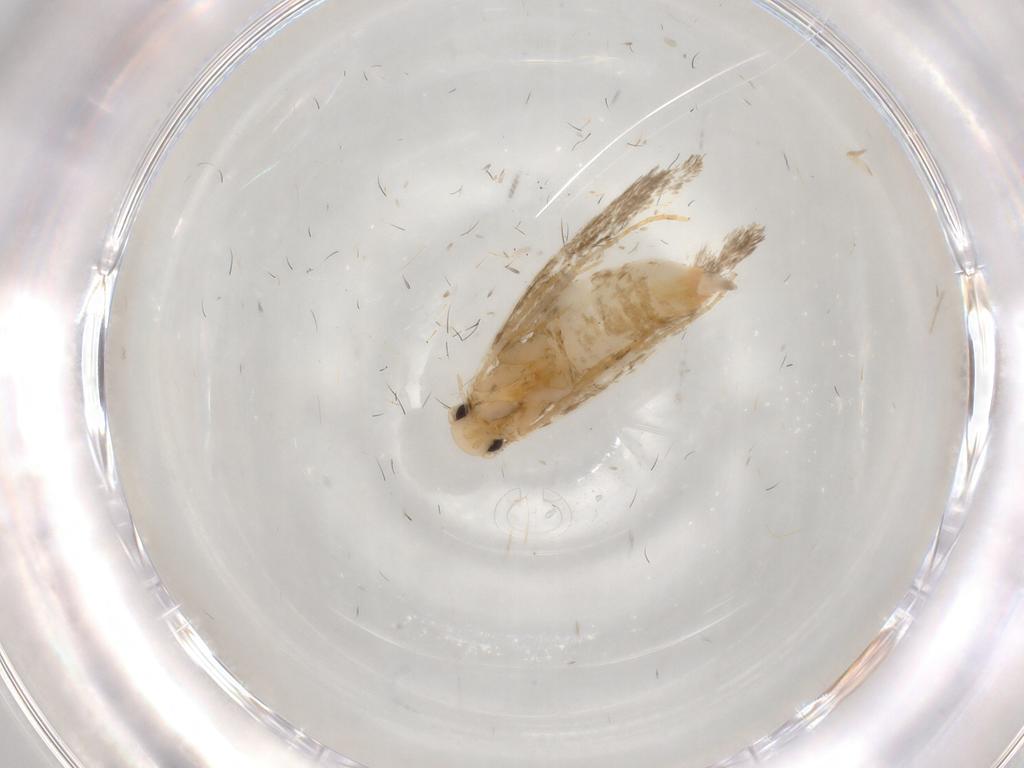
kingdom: Animalia
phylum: Arthropoda
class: Insecta
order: Lepidoptera
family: Tineidae
